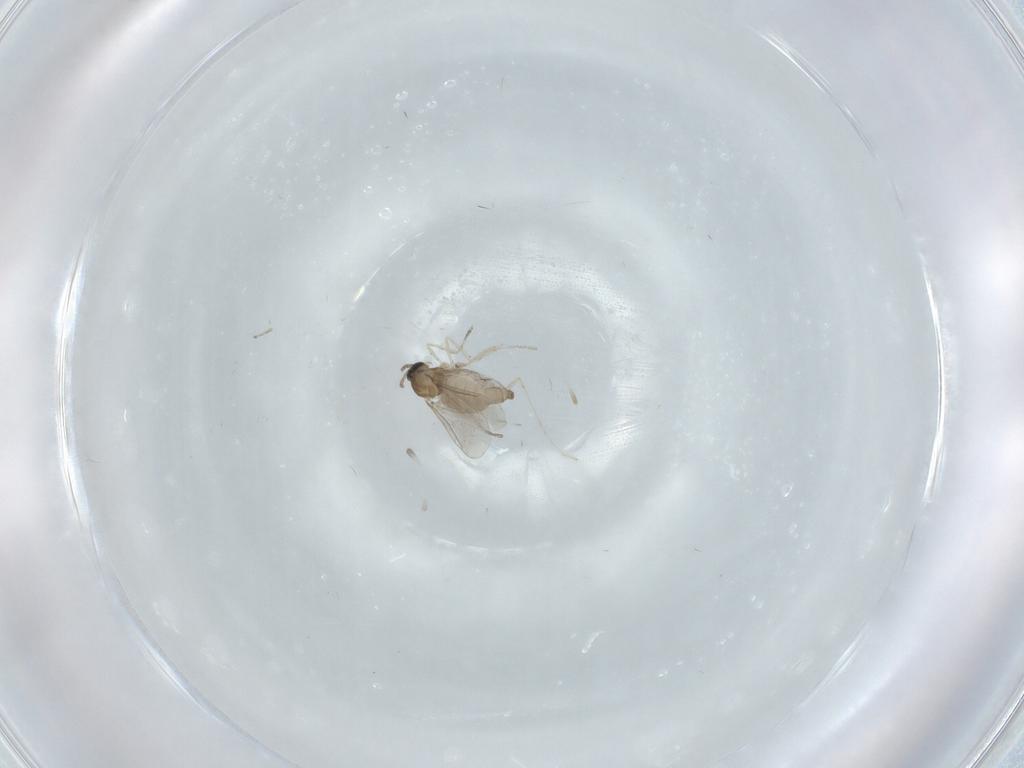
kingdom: Animalia
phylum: Arthropoda
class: Insecta
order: Diptera
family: Cecidomyiidae
